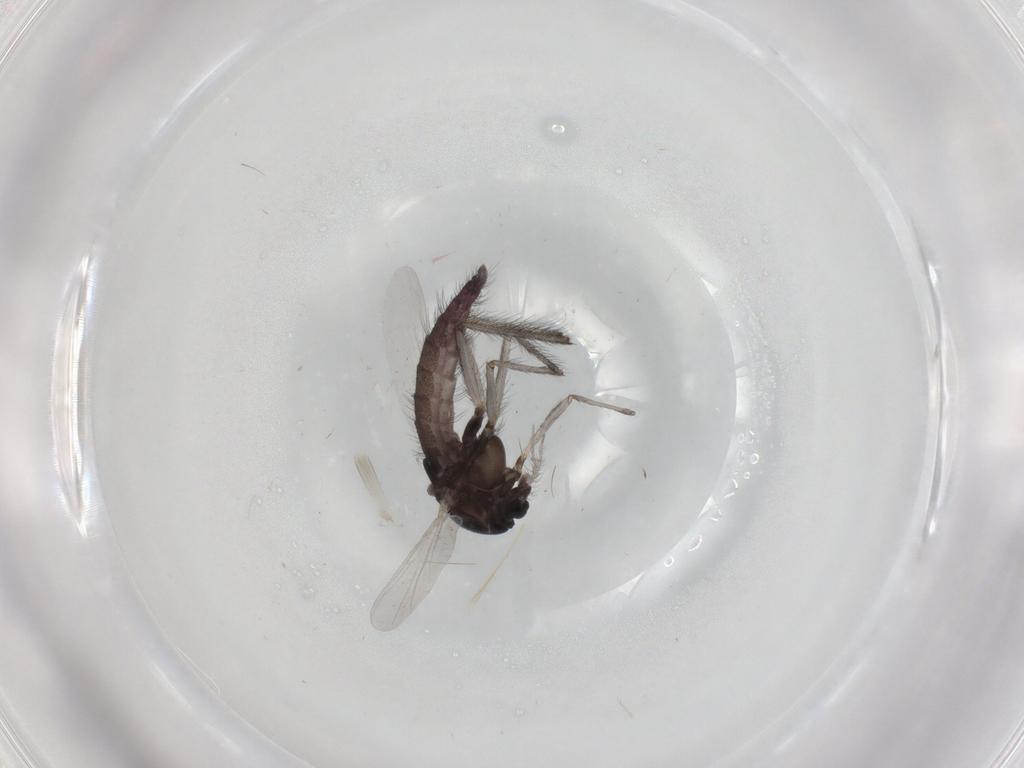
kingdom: Animalia
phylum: Arthropoda
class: Insecta
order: Diptera
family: Chironomidae
